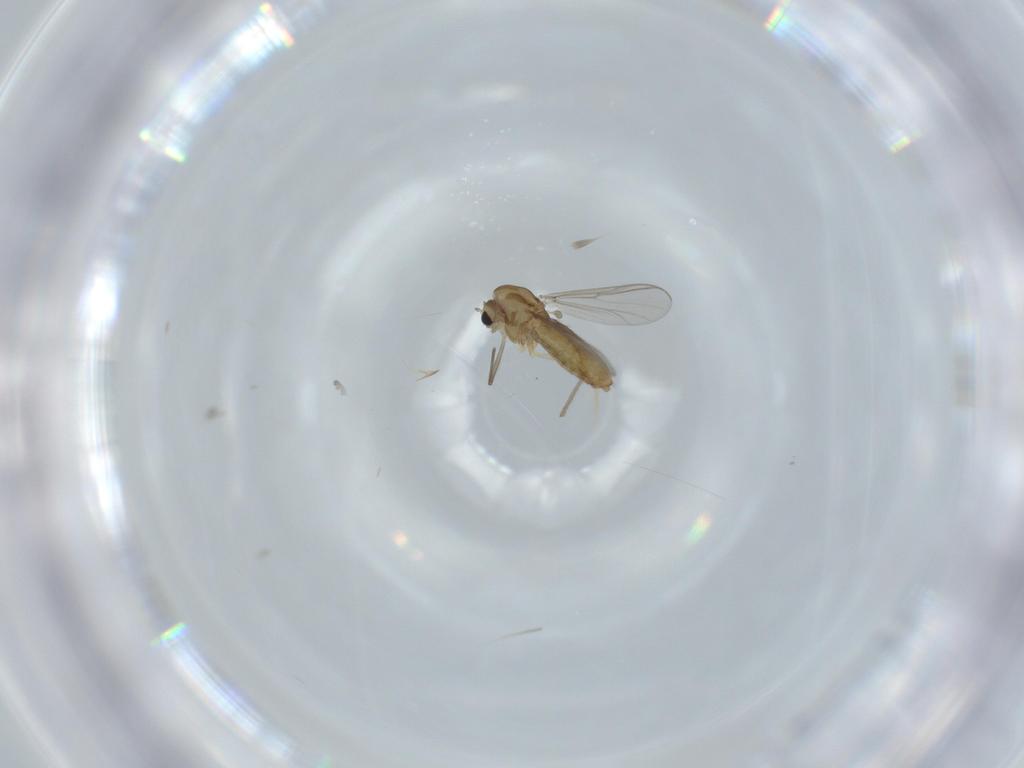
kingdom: Animalia
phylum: Arthropoda
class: Insecta
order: Diptera
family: Chironomidae
